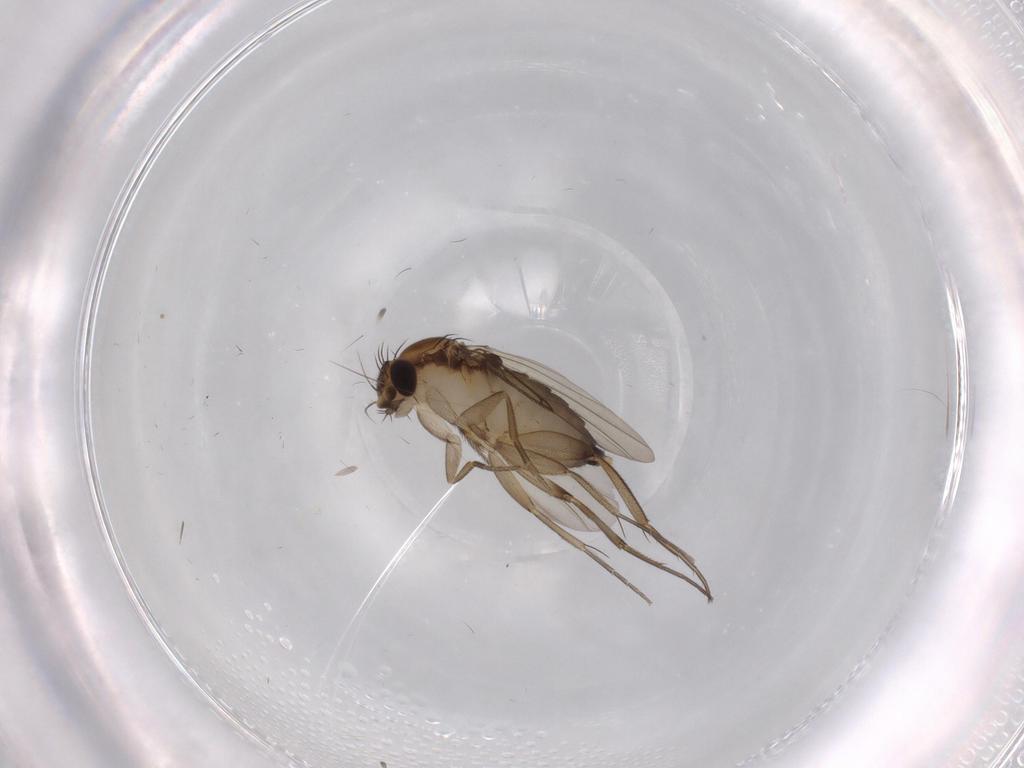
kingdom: Animalia
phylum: Arthropoda
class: Insecta
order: Diptera
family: Phoridae
